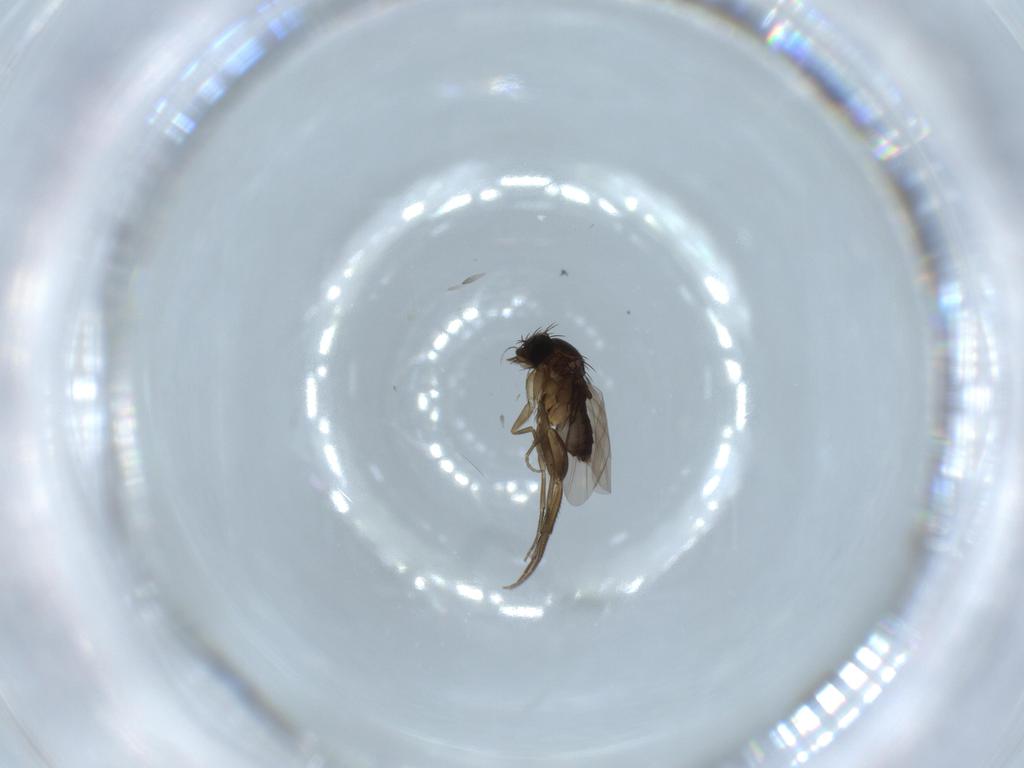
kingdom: Animalia
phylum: Arthropoda
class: Insecta
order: Diptera
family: Phoridae
